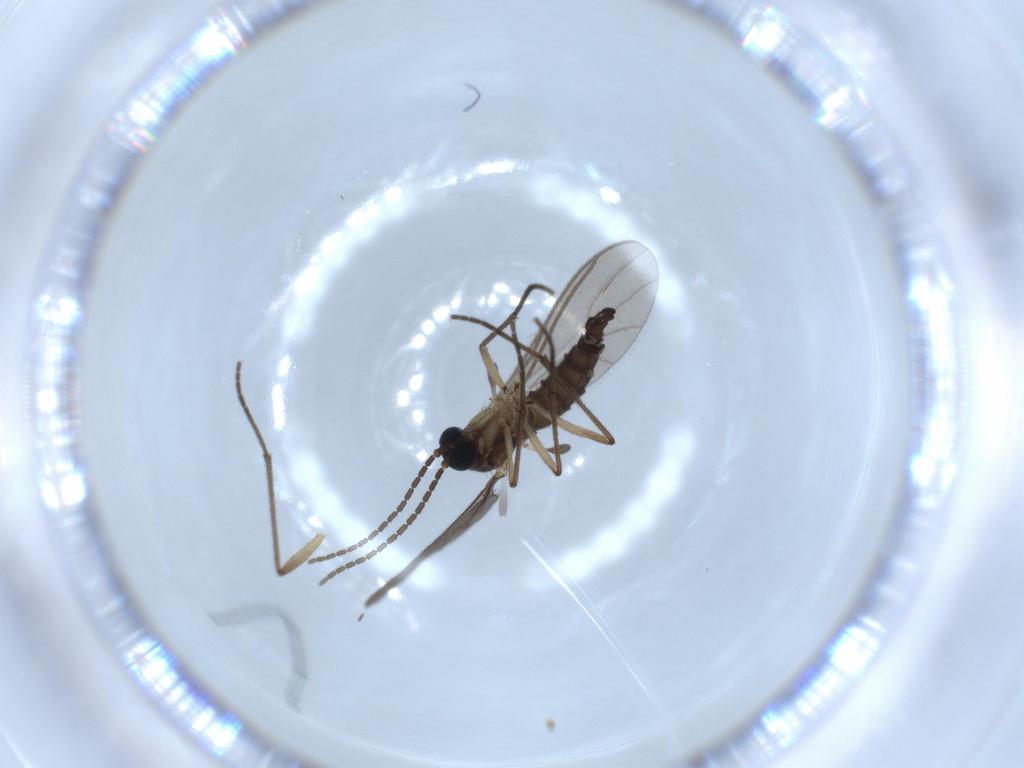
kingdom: Animalia
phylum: Arthropoda
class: Insecta
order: Diptera
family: Sciaridae
